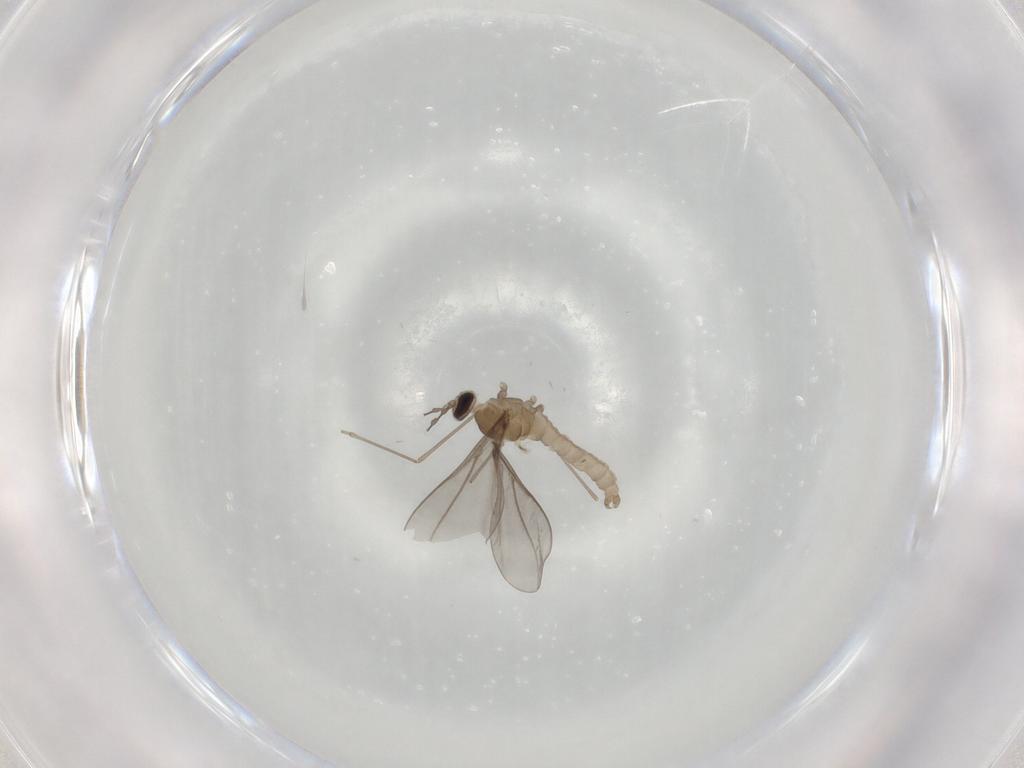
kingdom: Animalia
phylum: Arthropoda
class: Insecta
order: Diptera
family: Cecidomyiidae
